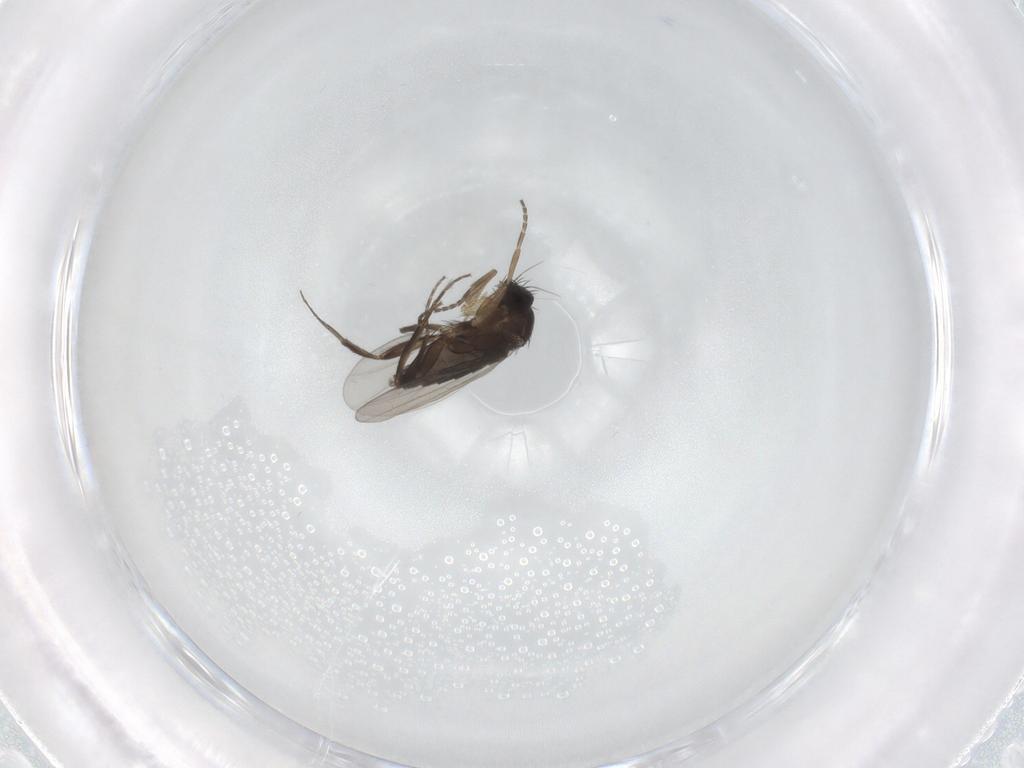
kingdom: Animalia
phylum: Arthropoda
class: Insecta
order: Diptera
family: Phoridae
